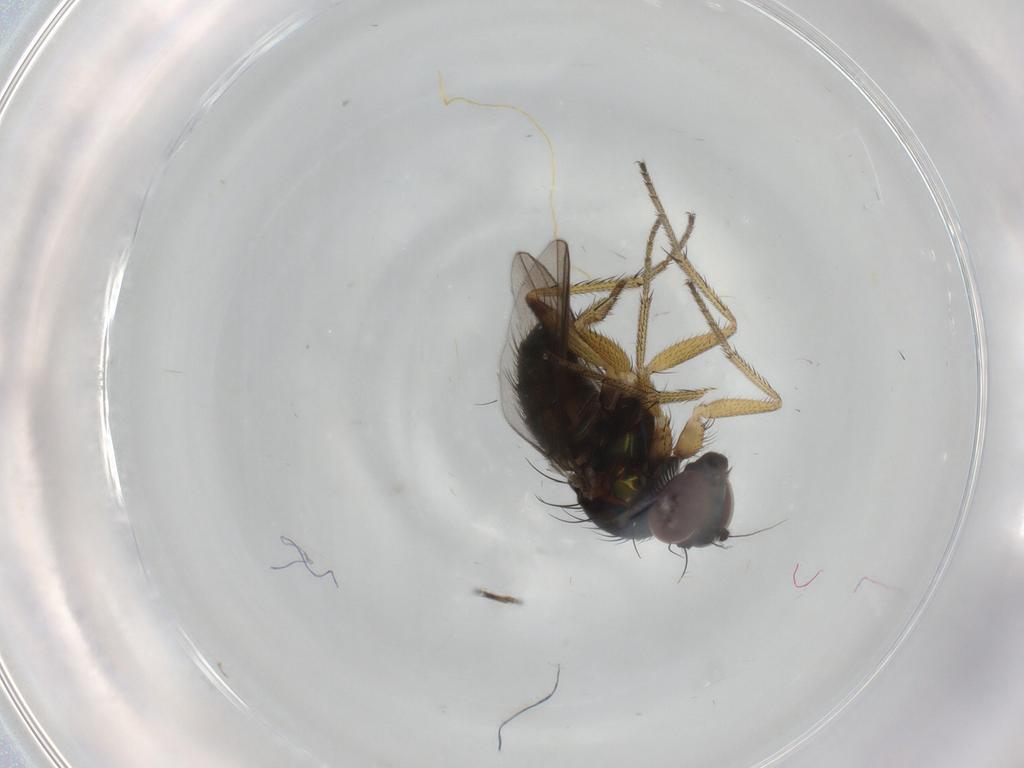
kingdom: Animalia
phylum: Arthropoda
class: Insecta
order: Diptera
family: Dolichopodidae
